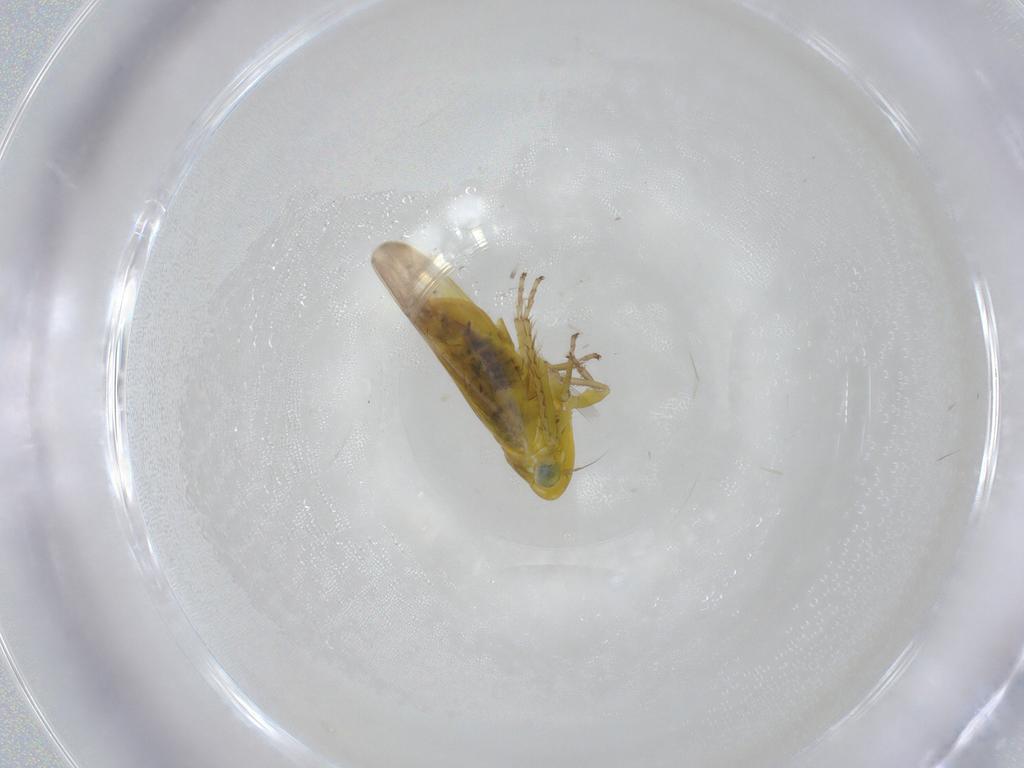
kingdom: Animalia
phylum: Arthropoda
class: Insecta
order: Hemiptera
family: Cicadellidae
